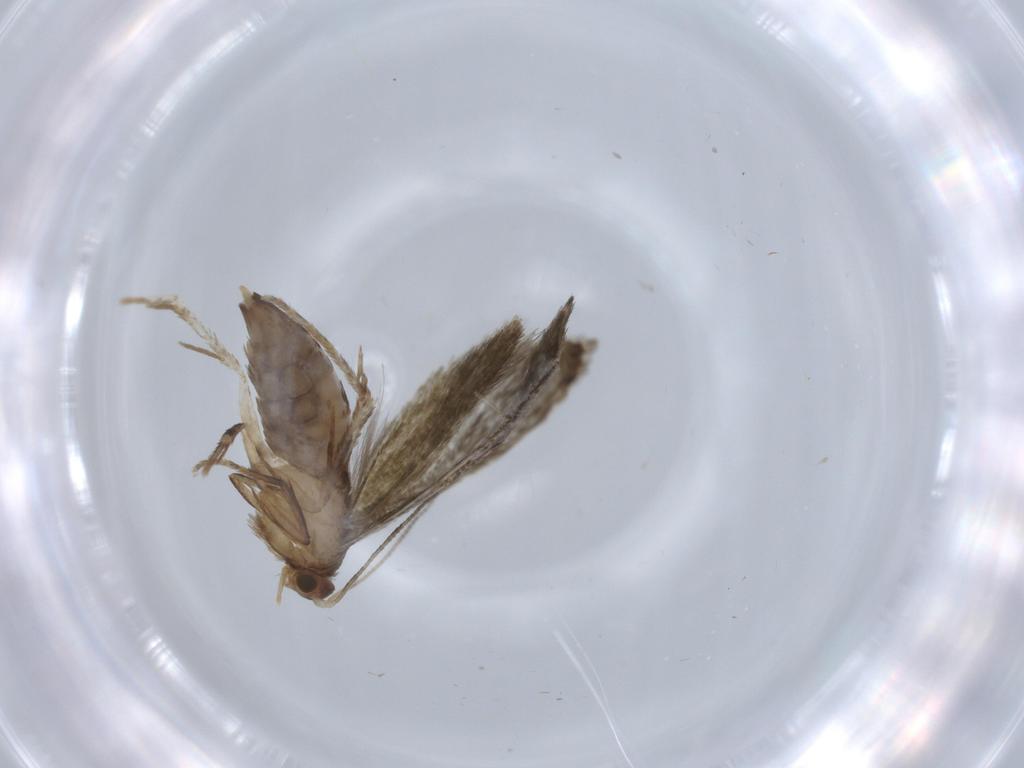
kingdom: Animalia
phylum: Arthropoda
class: Insecta
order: Lepidoptera
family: Tineidae
